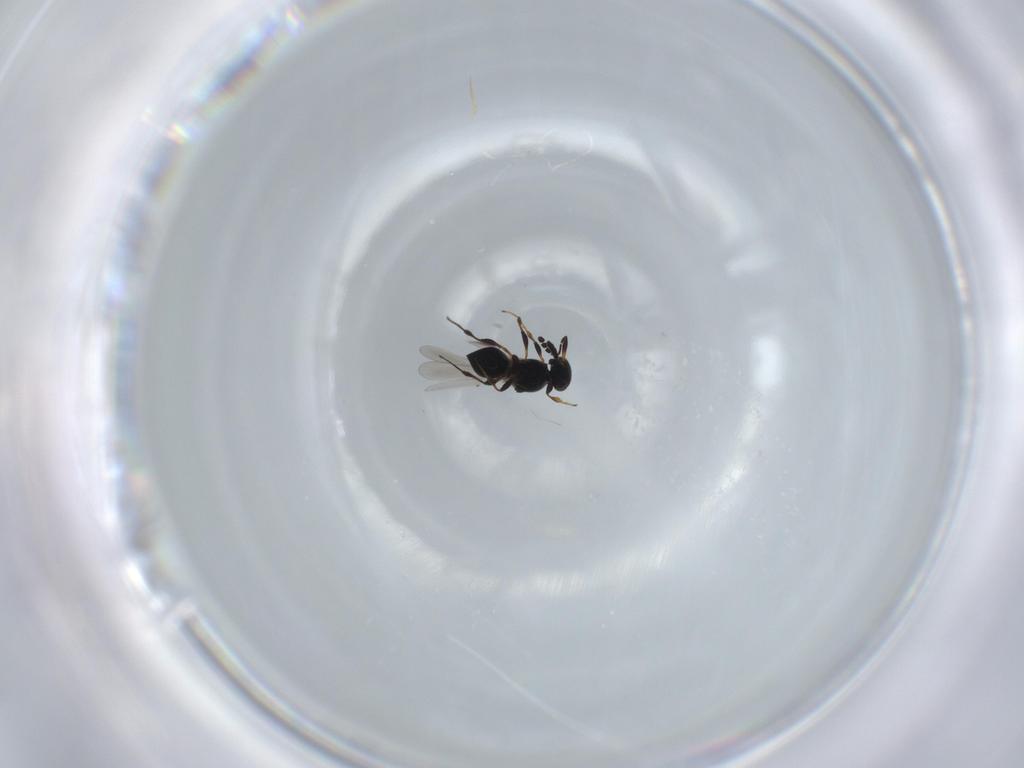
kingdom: Animalia
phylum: Arthropoda
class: Insecta
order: Hymenoptera
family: Platygastridae
